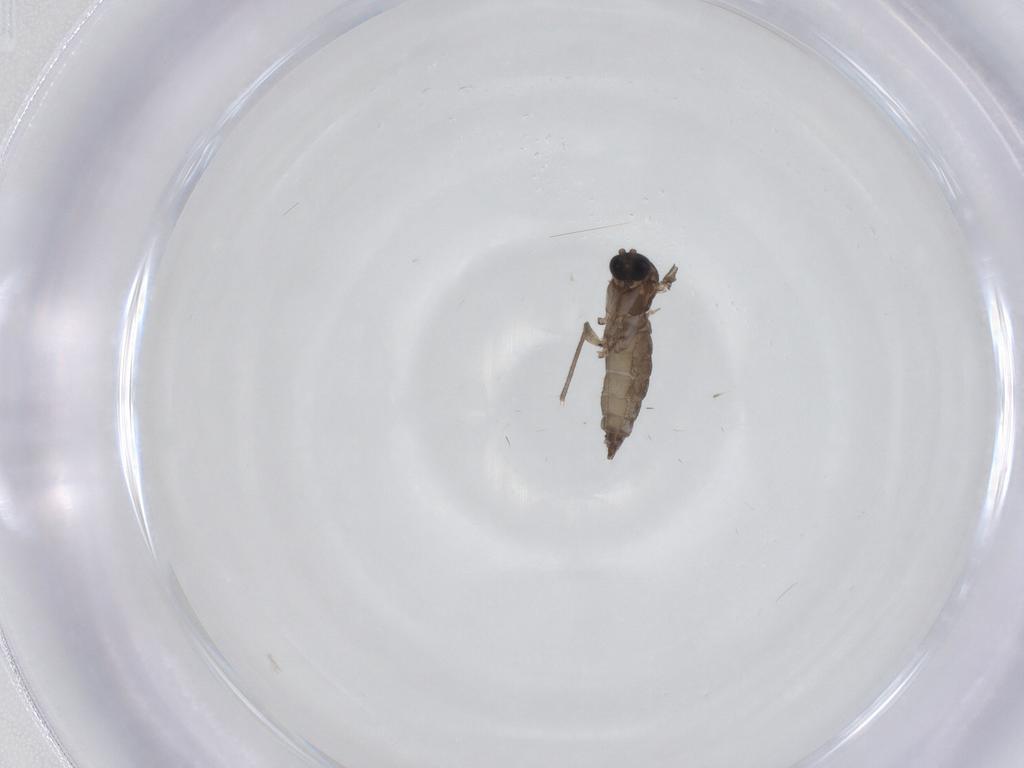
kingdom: Animalia
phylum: Arthropoda
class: Insecta
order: Diptera
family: Sciaridae
